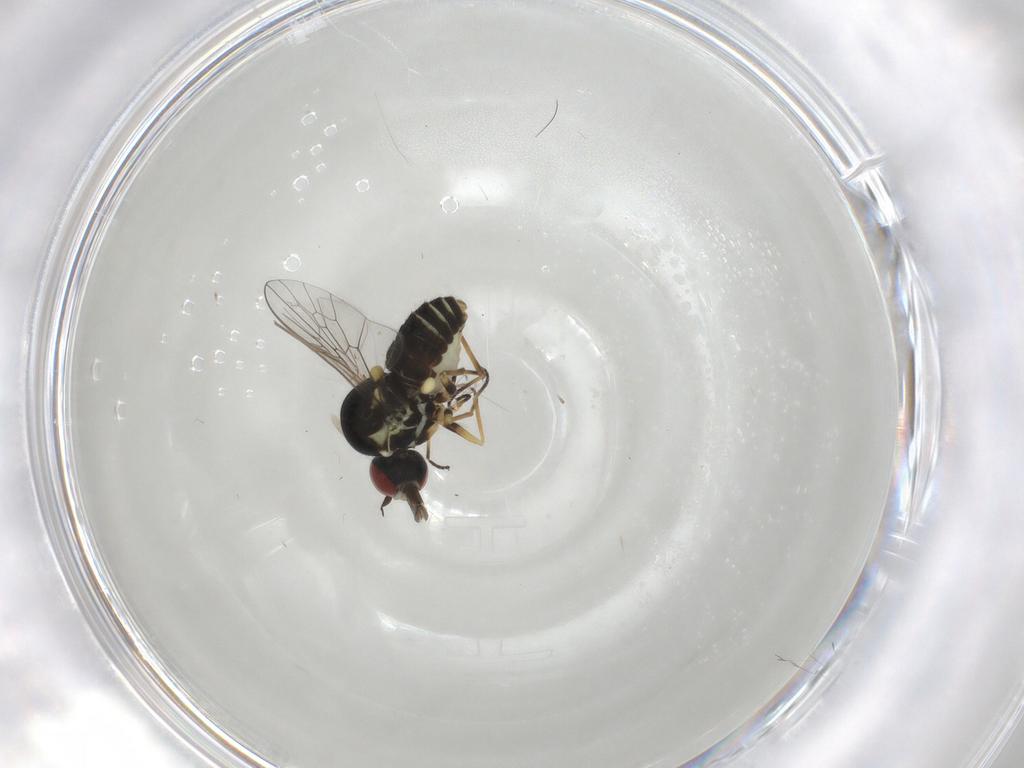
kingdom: Animalia
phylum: Arthropoda
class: Insecta
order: Diptera
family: Bombyliidae
